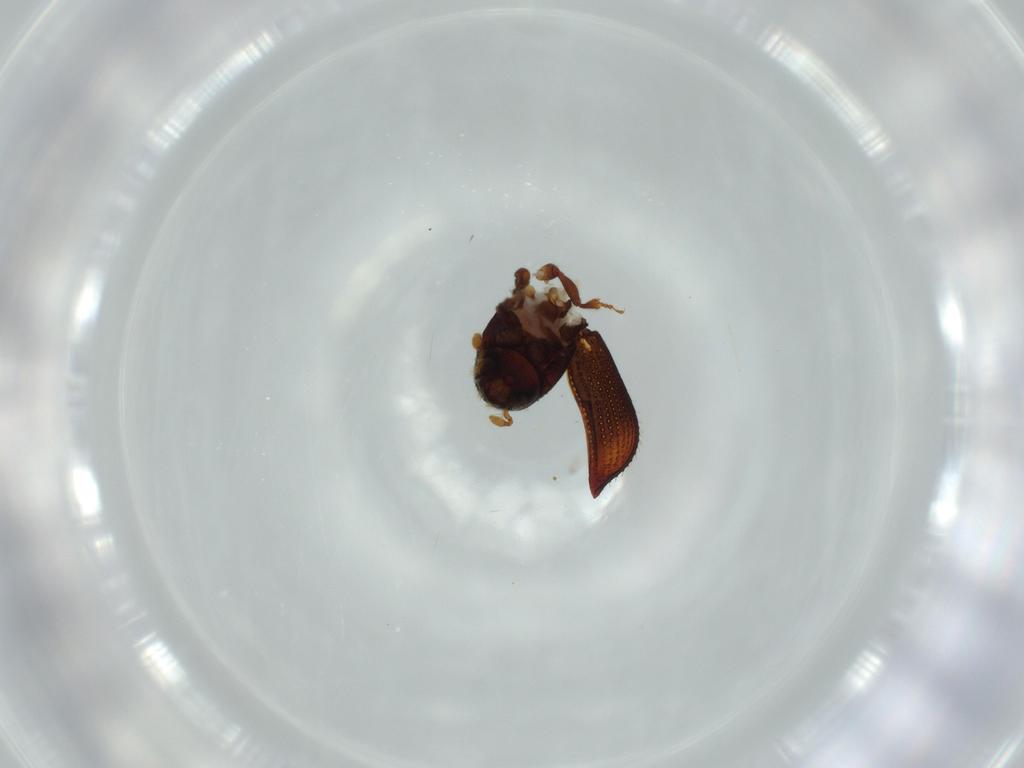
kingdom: Animalia
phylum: Arthropoda
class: Insecta
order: Coleoptera
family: Curculionidae
